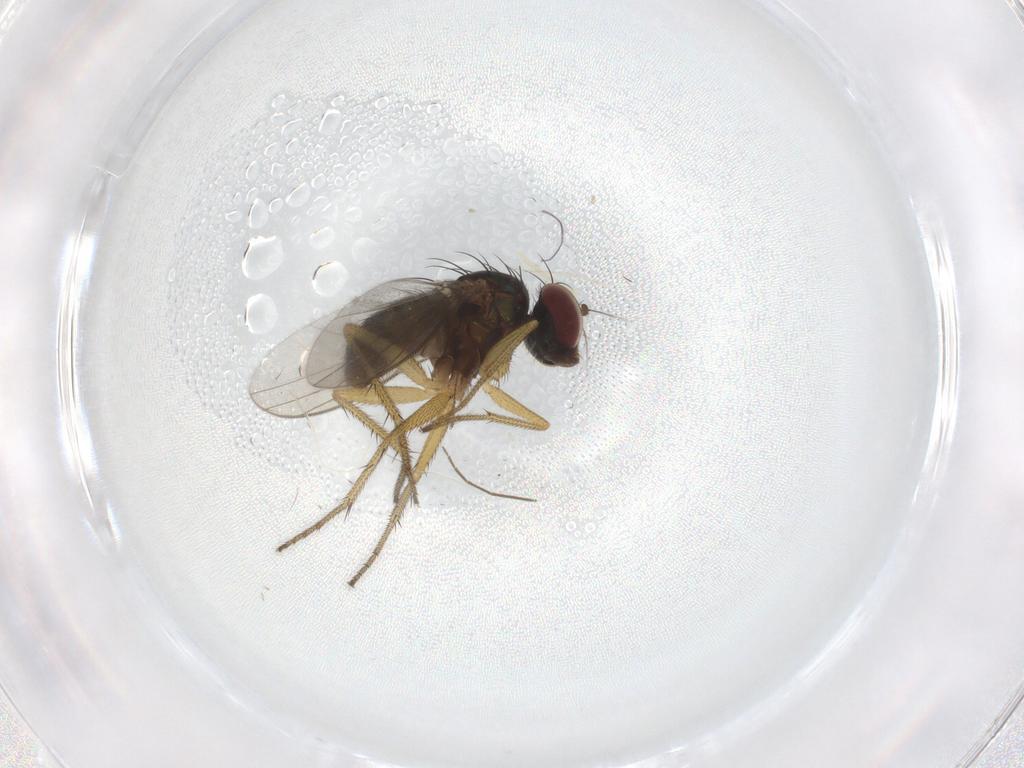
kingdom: Animalia
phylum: Arthropoda
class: Insecta
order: Diptera
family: Dolichopodidae
